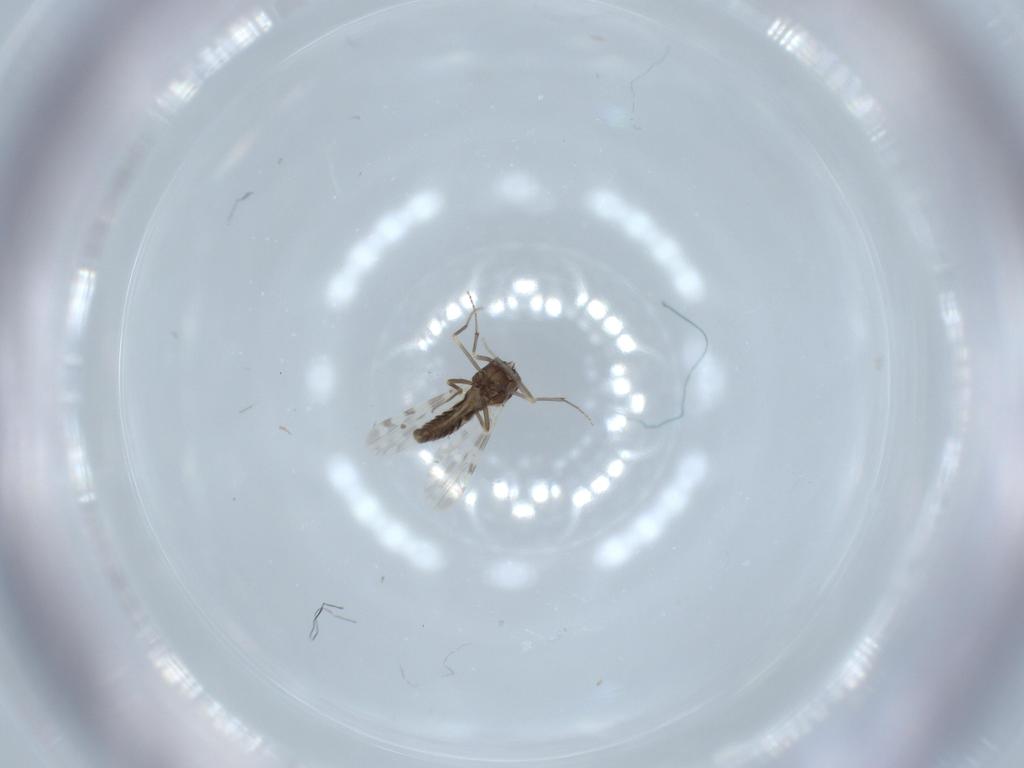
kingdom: Animalia
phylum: Arthropoda
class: Insecta
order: Diptera
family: Ceratopogonidae
